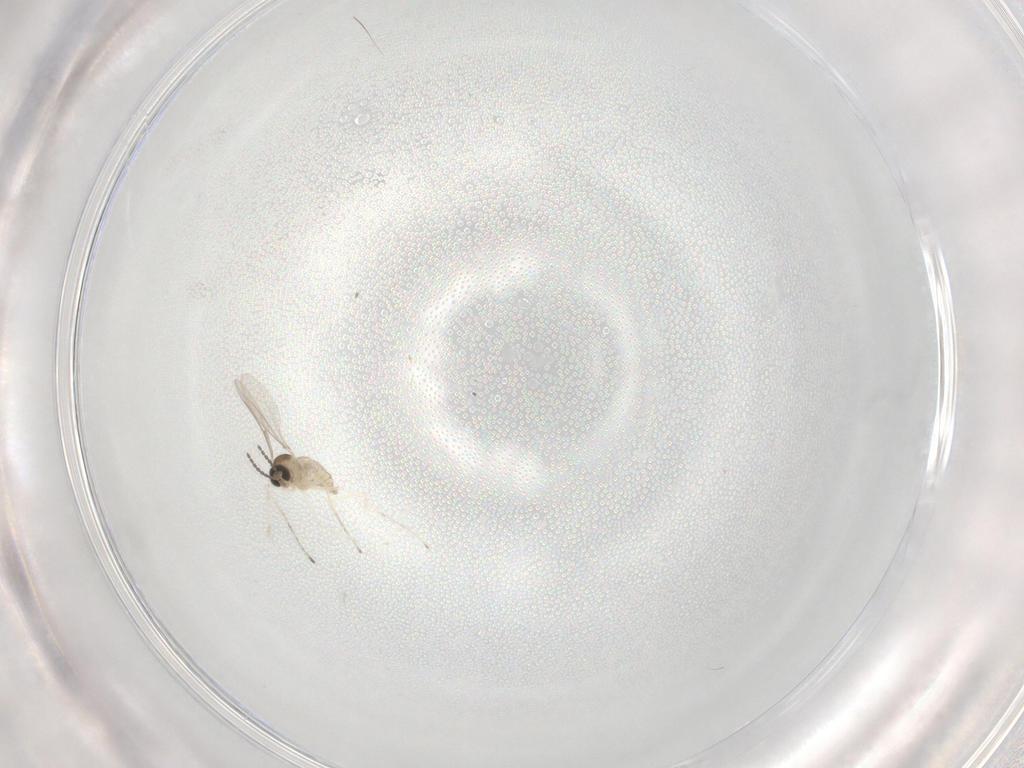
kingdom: Animalia
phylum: Arthropoda
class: Insecta
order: Diptera
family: Cecidomyiidae
